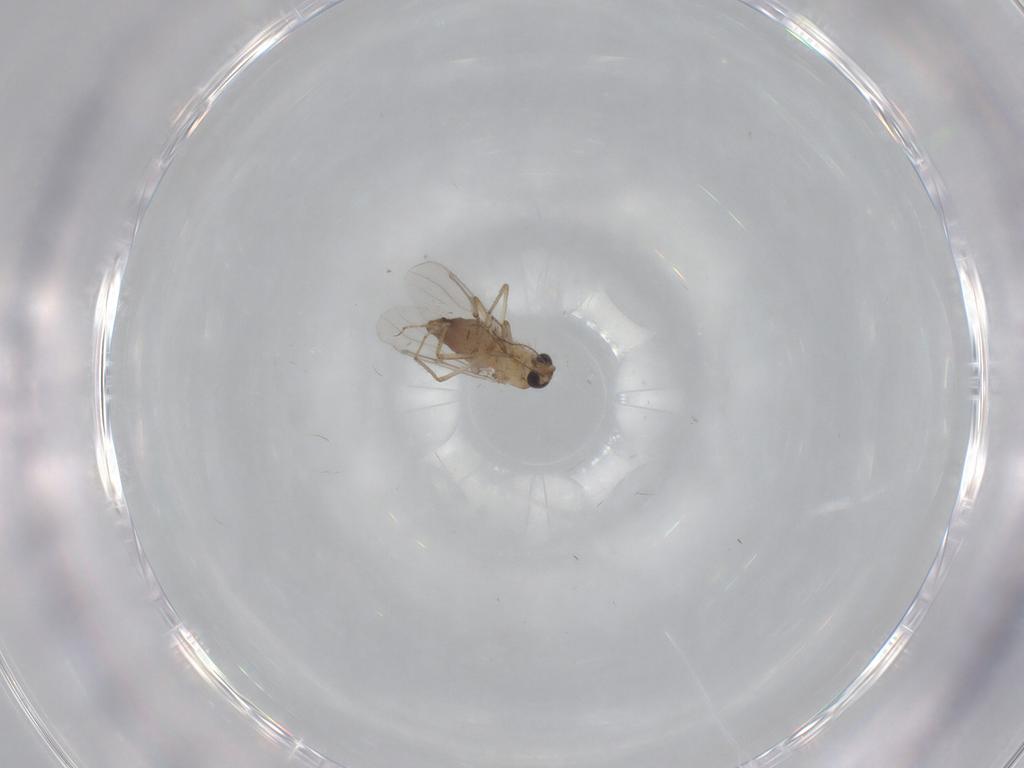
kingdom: Animalia
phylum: Arthropoda
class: Insecta
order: Diptera
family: Ceratopogonidae
